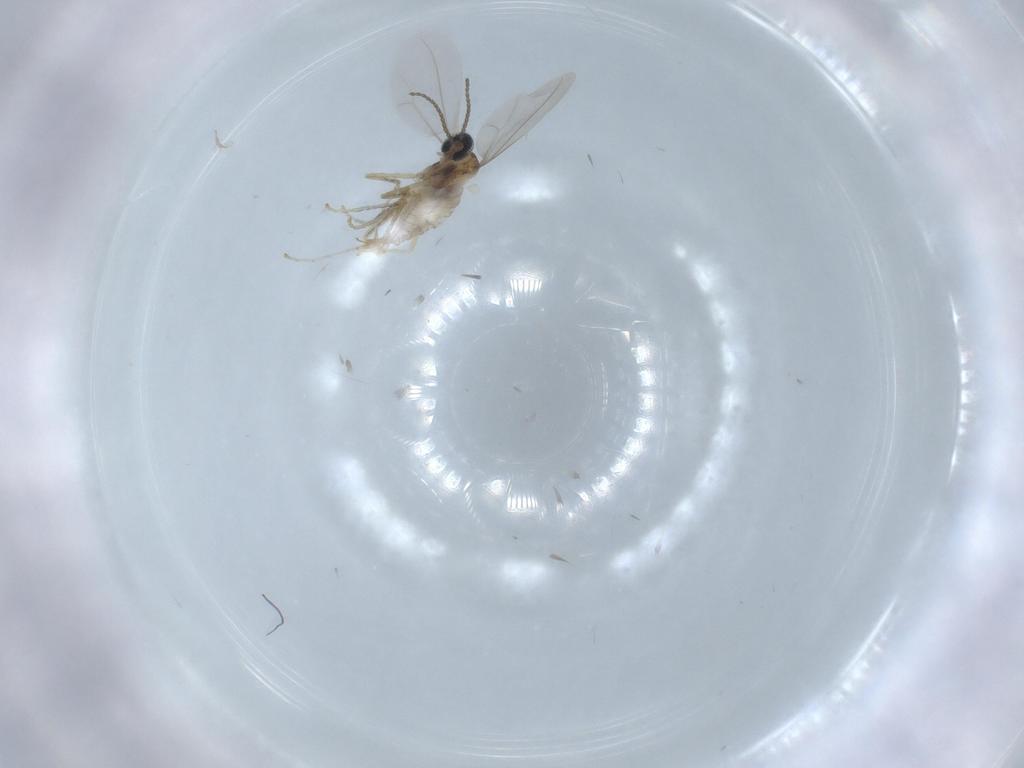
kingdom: Animalia
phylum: Arthropoda
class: Insecta
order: Diptera
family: Cecidomyiidae
